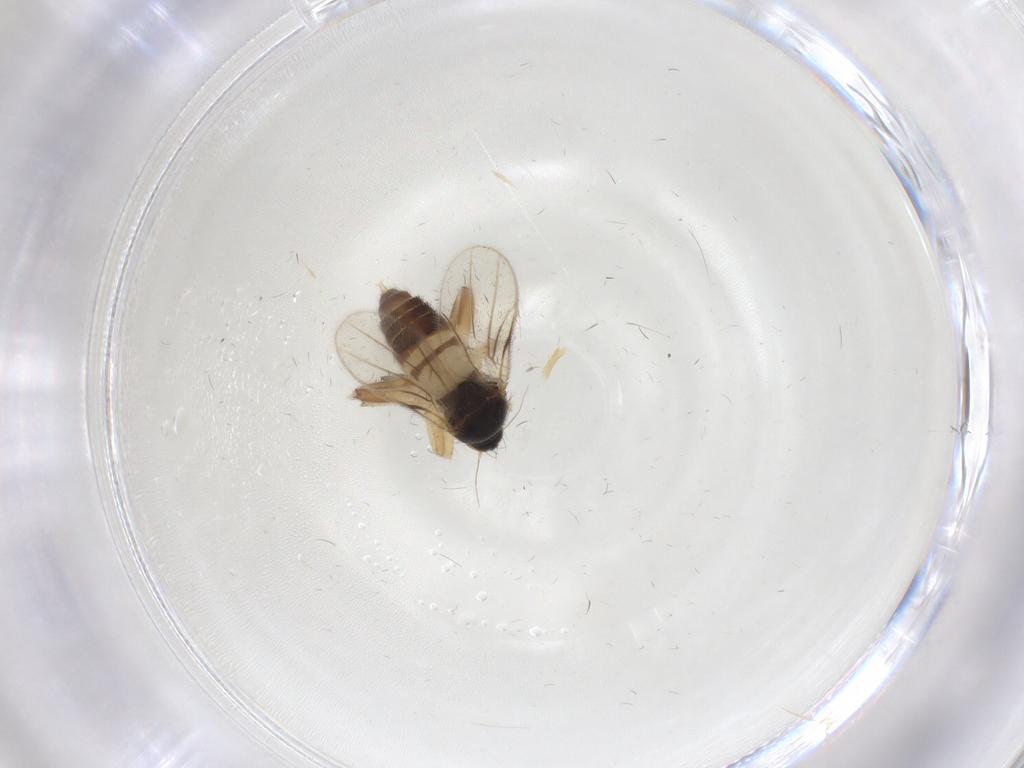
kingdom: Animalia
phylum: Arthropoda
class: Insecta
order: Diptera
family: Hybotidae
